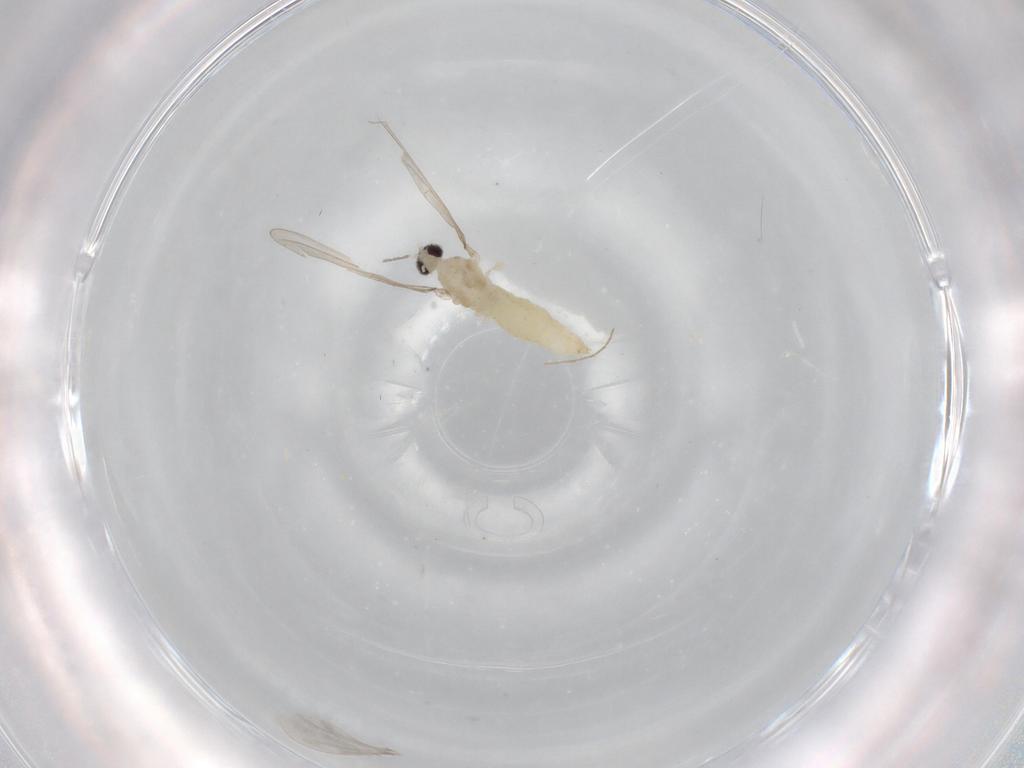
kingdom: Animalia
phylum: Arthropoda
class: Insecta
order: Diptera
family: Cecidomyiidae
